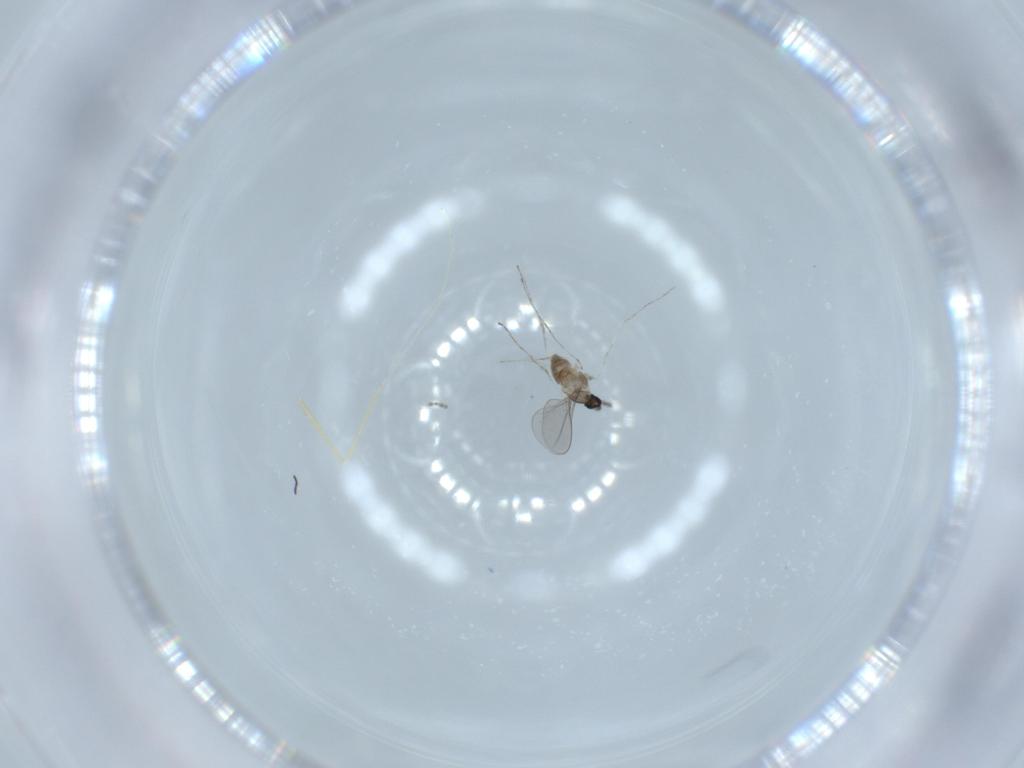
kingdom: Animalia
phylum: Arthropoda
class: Insecta
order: Diptera
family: Cecidomyiidae
